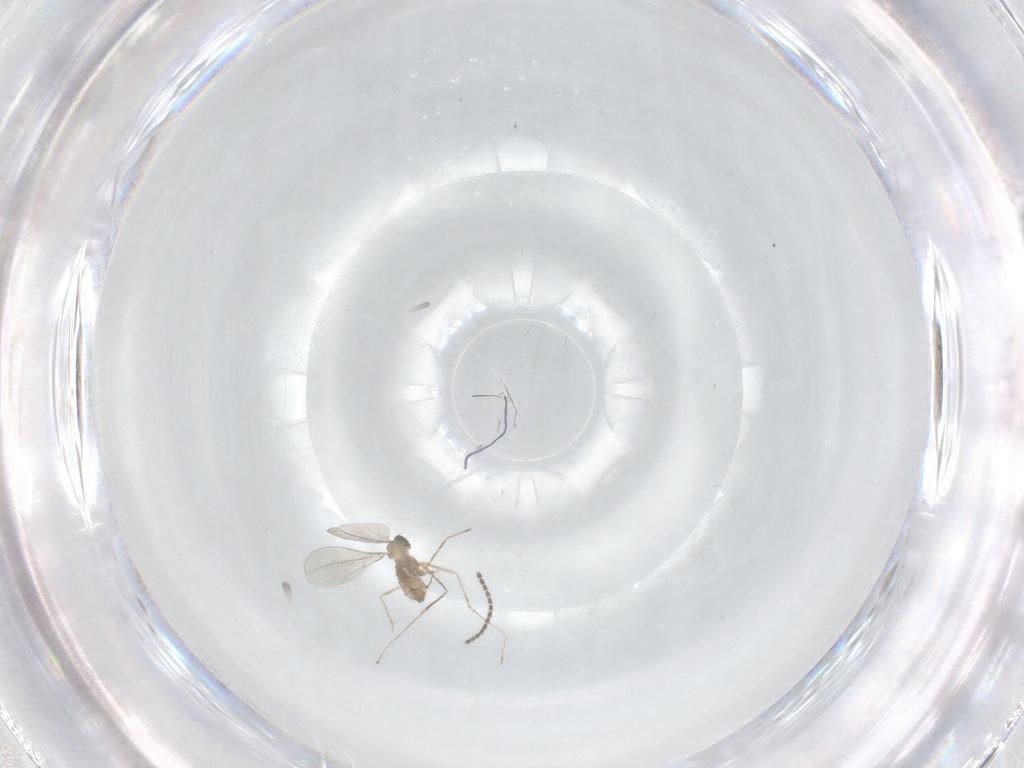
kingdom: Animalia
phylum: Arthropoda
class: Insecta
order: Diptera
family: Cecidomyiidae
